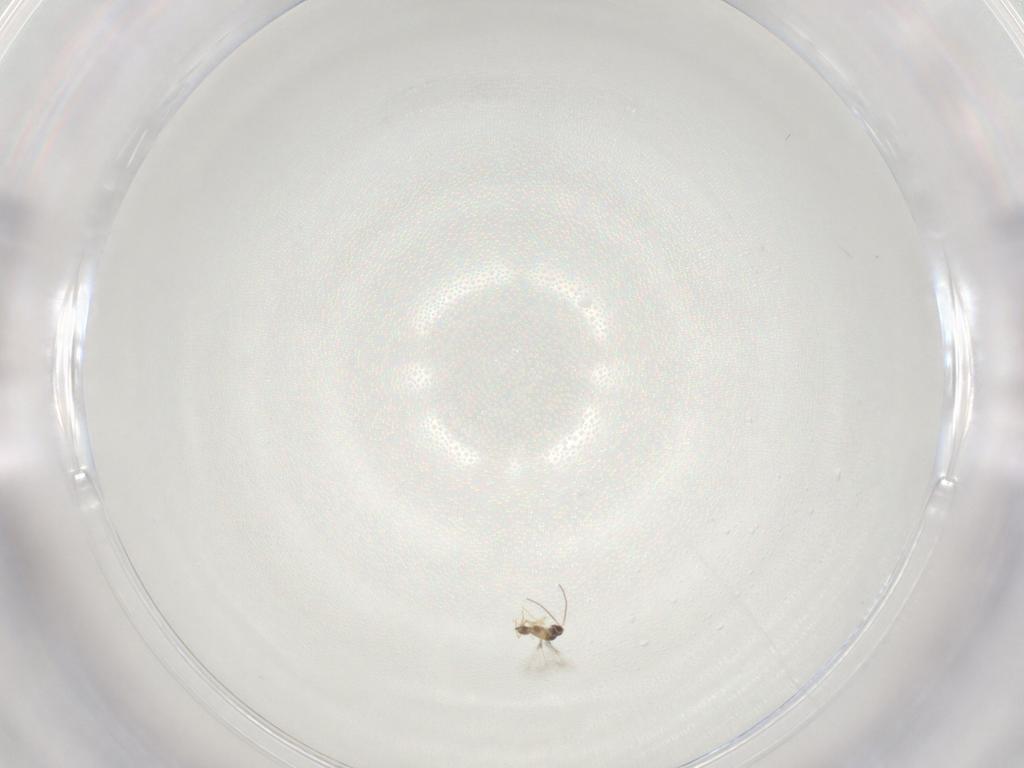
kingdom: Animalia
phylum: Arthropoda
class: Insecta
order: Hymenoptera
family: Mymaridae
